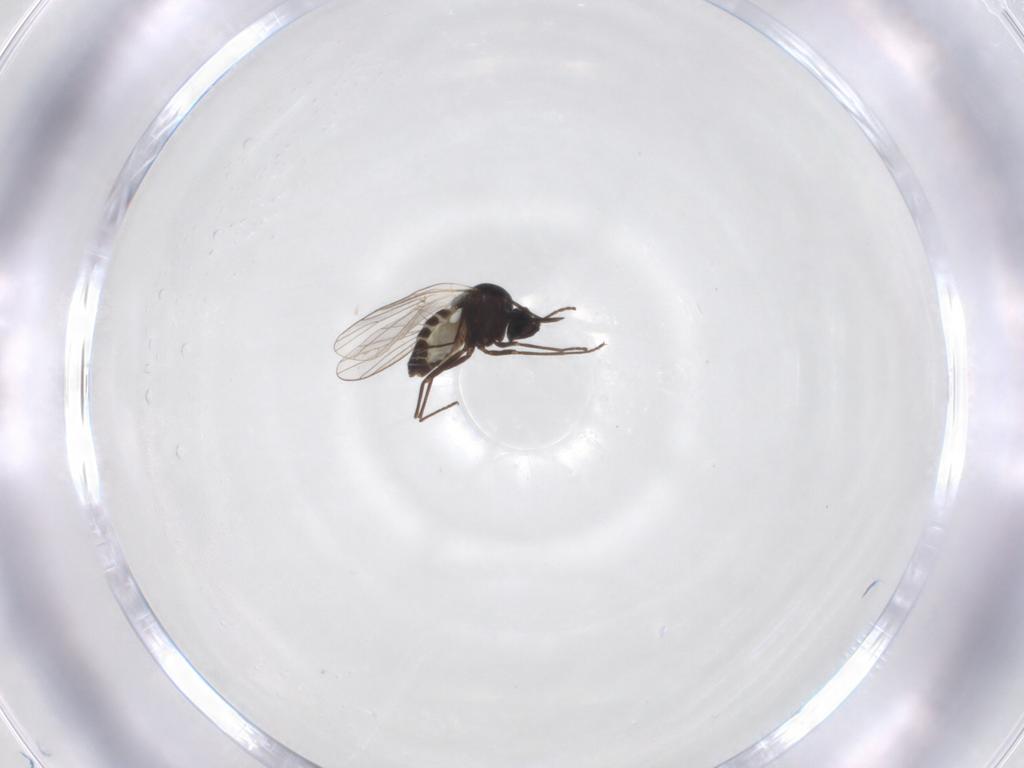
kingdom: Animalia
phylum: Arthropoda
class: Insecta
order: Diptera
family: Bombyliidae
